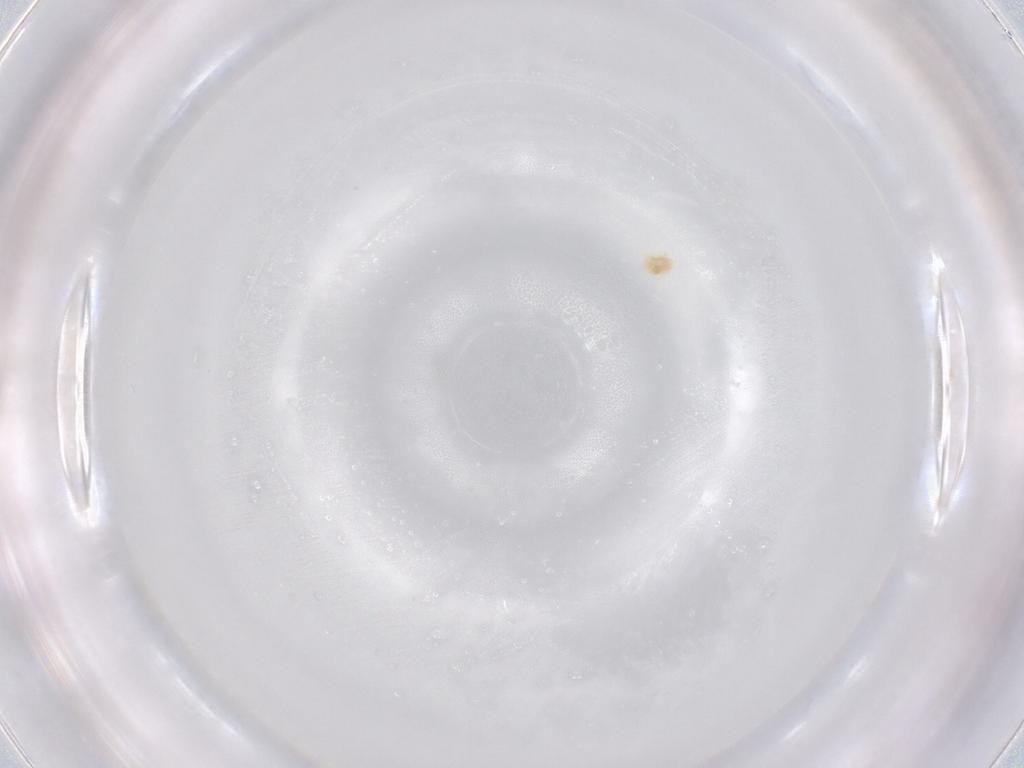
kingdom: Animalia
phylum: Arthropoda
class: Arachnida
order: Trombidiformes
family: Eupodidae
